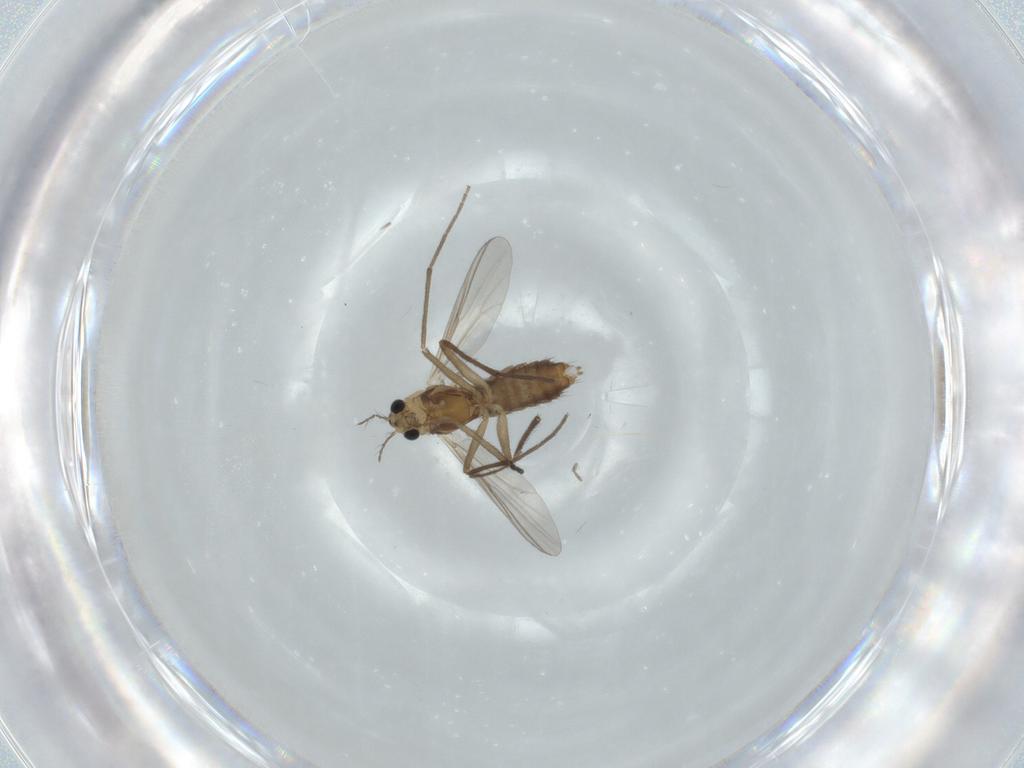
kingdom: Animalia
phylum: Arthropoda
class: Insecta
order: Diptera
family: Chironomidae
